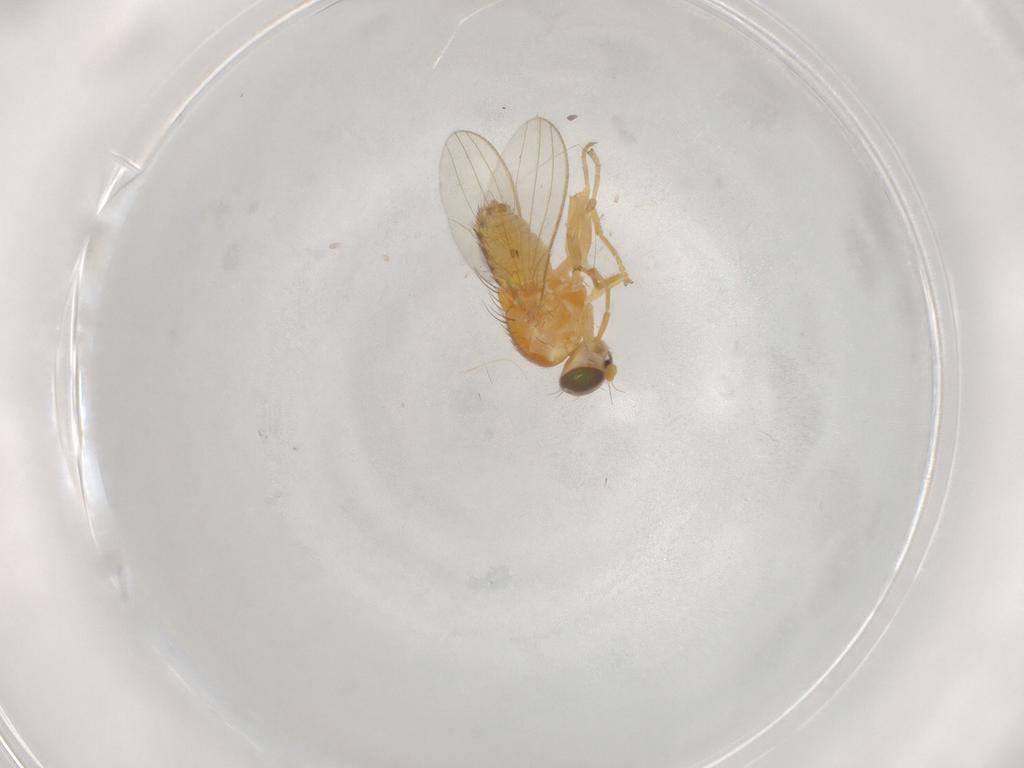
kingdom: Animalia
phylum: Arthropoda
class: Insecta
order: Diptera
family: Chyromyidae
